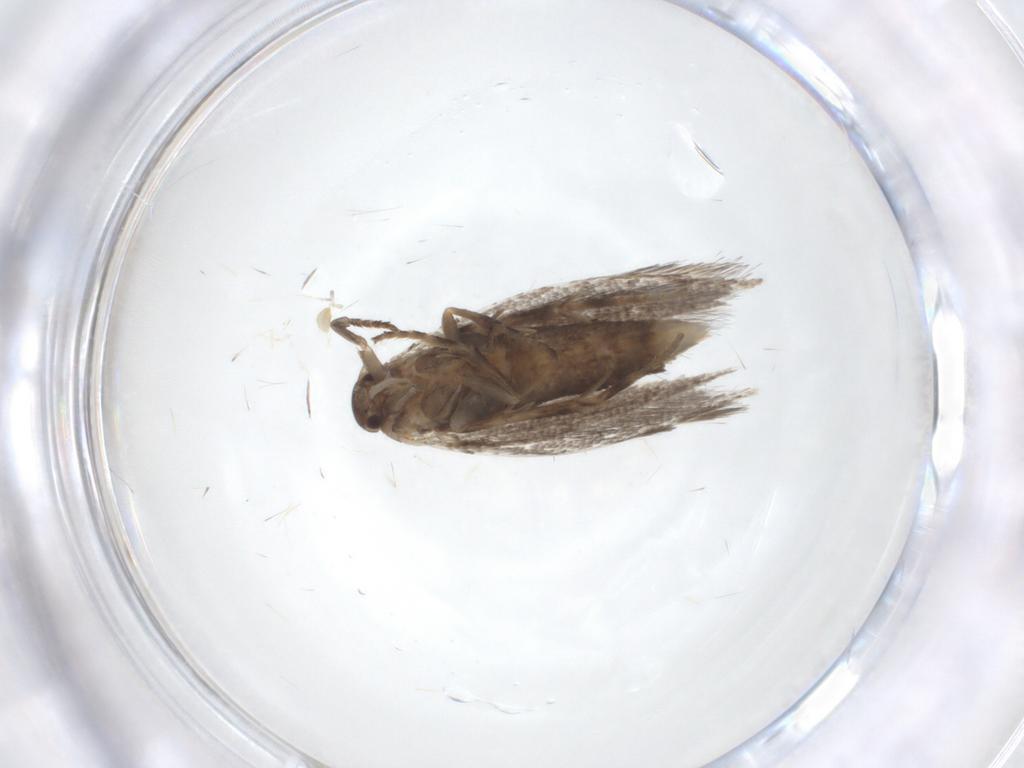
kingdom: Animalia
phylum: Arthropoda
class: Insecta
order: Lepidoptera
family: Elachistidae
